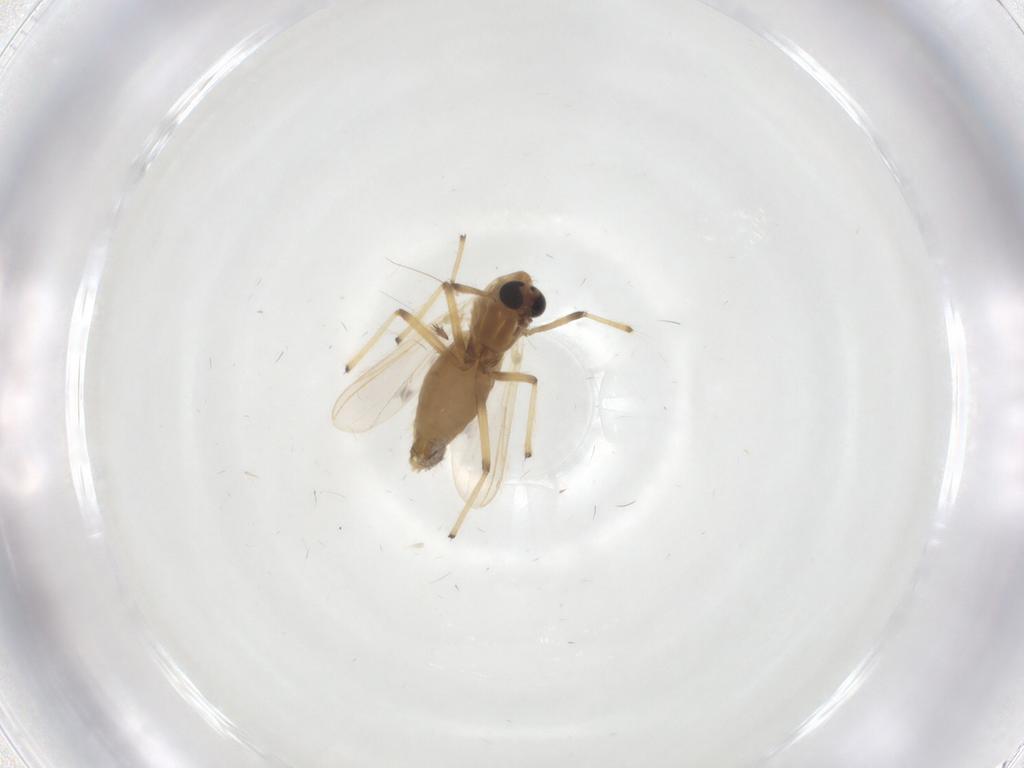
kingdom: Animalia
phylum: Arthropoda
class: Insecta
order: Diptera
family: Chironomidae
